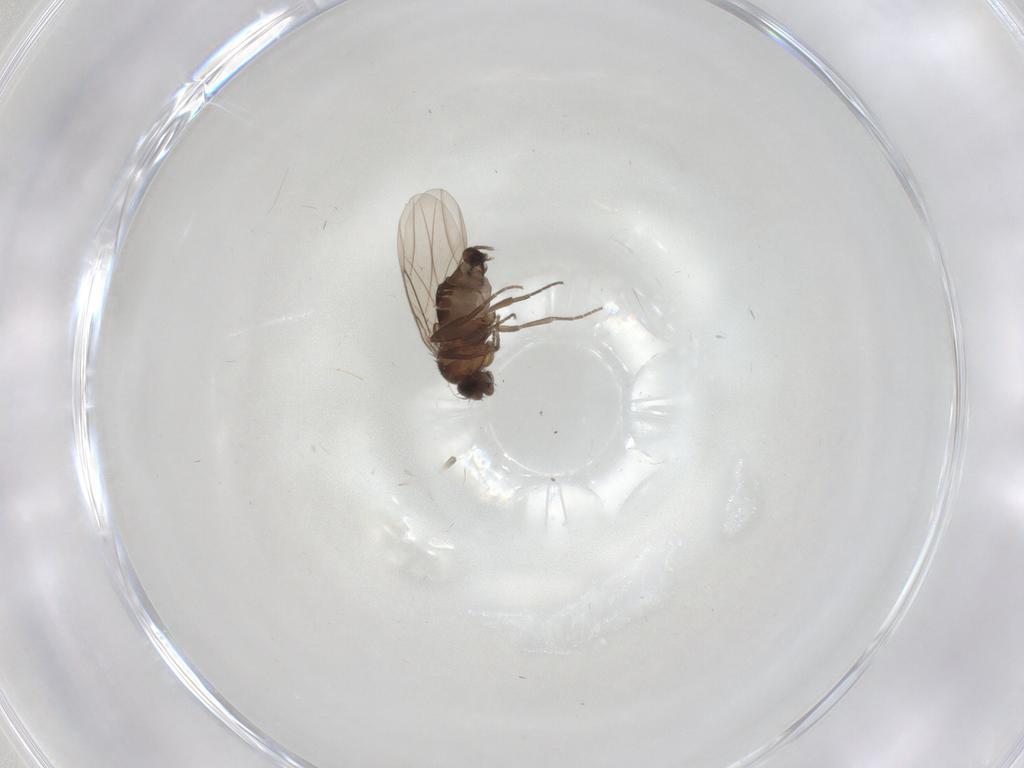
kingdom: Animalia
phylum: Arthropoda
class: Insecta
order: Diptera
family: Phoridae
